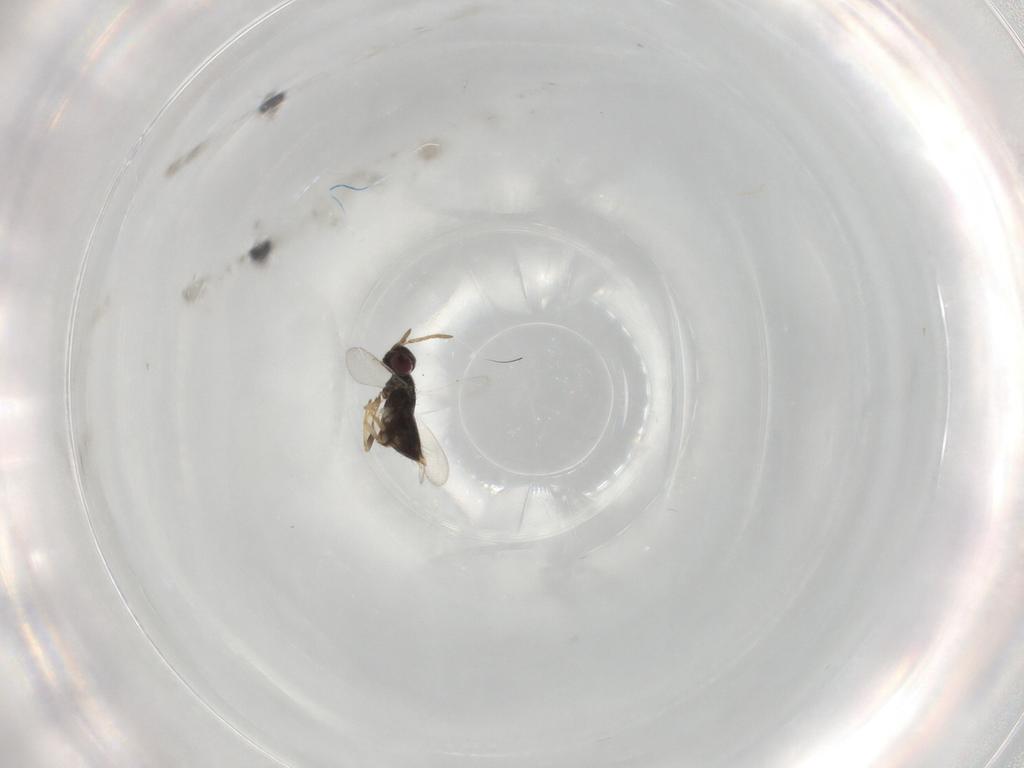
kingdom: Animalia
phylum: Arthropoda
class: Insecta
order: Hymenoptera
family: Aphelinidae
